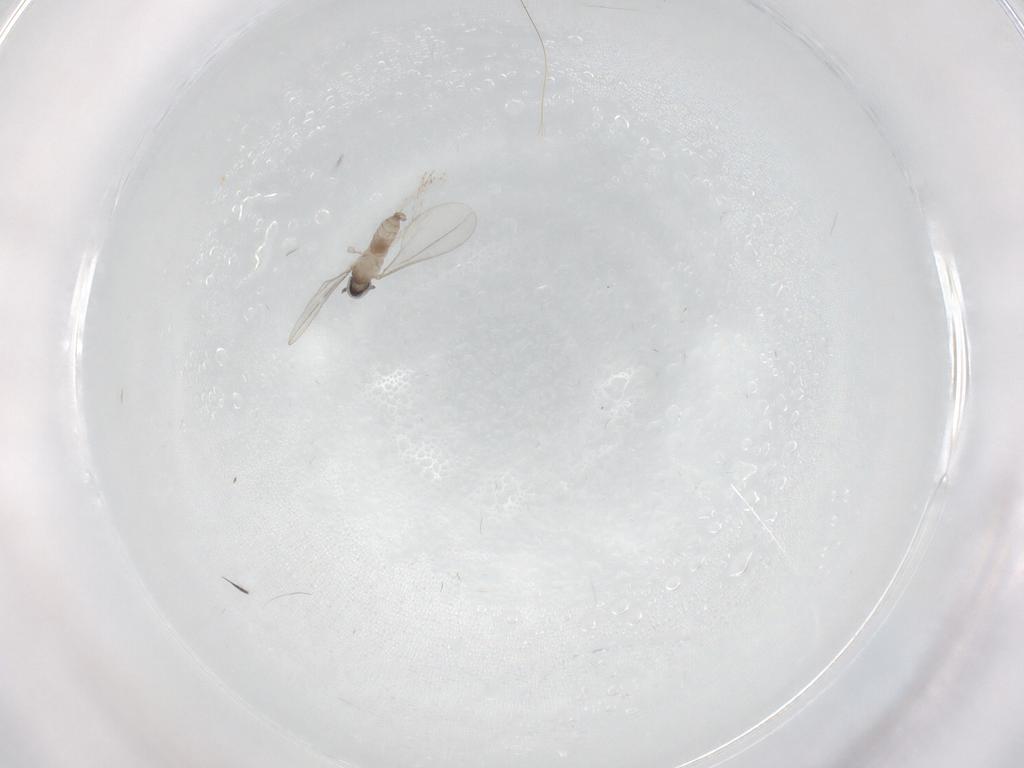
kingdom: Animalia
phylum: Arthropoda
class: Insecta
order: Diptera
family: Cecidomyiidae
